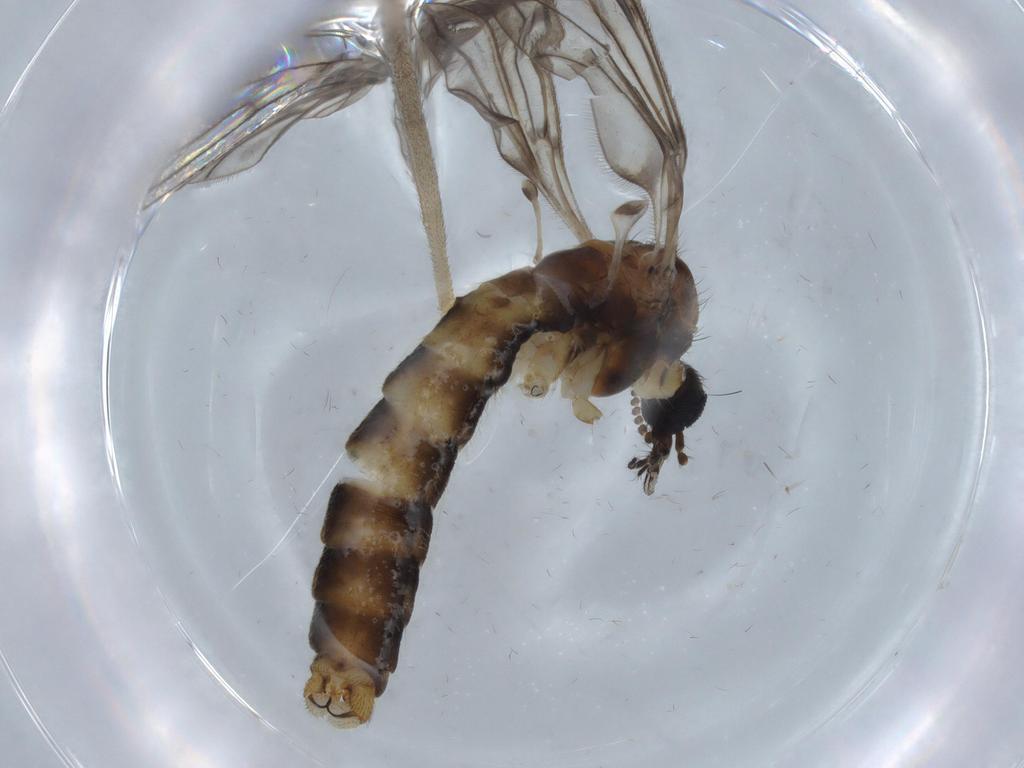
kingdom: Animalia
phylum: Arthropoda
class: Insecta
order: Diptera
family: Limoniidae
